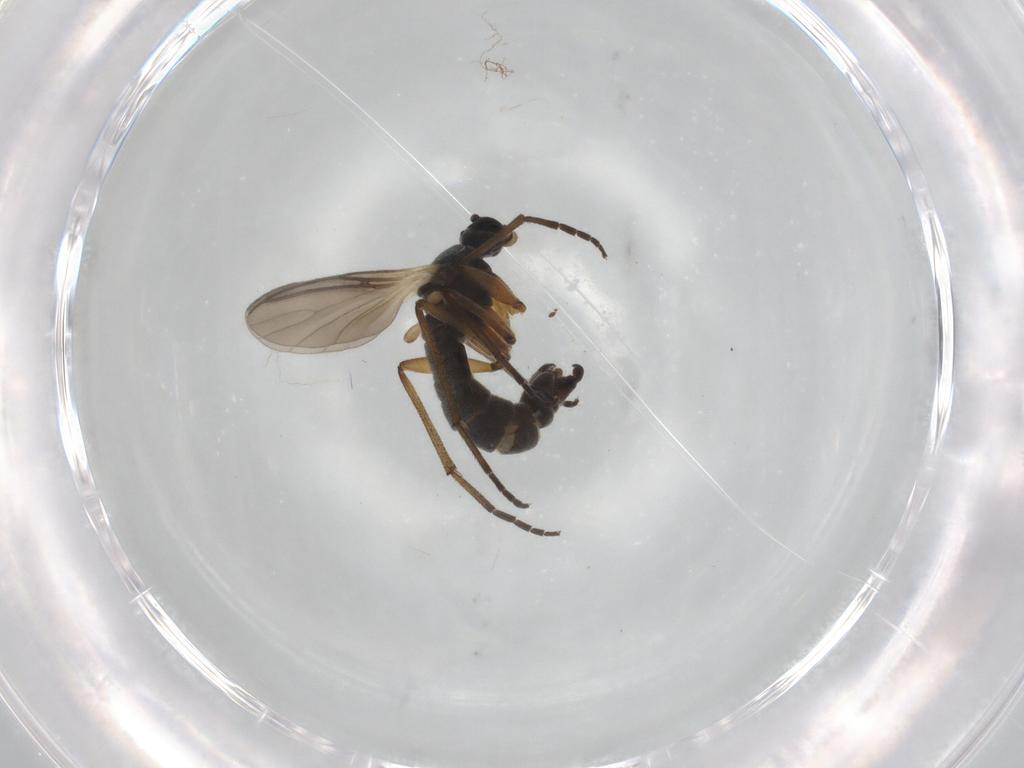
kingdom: Animalia
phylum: Arthropoda
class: Insecta
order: Diptera
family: Sciaridae
